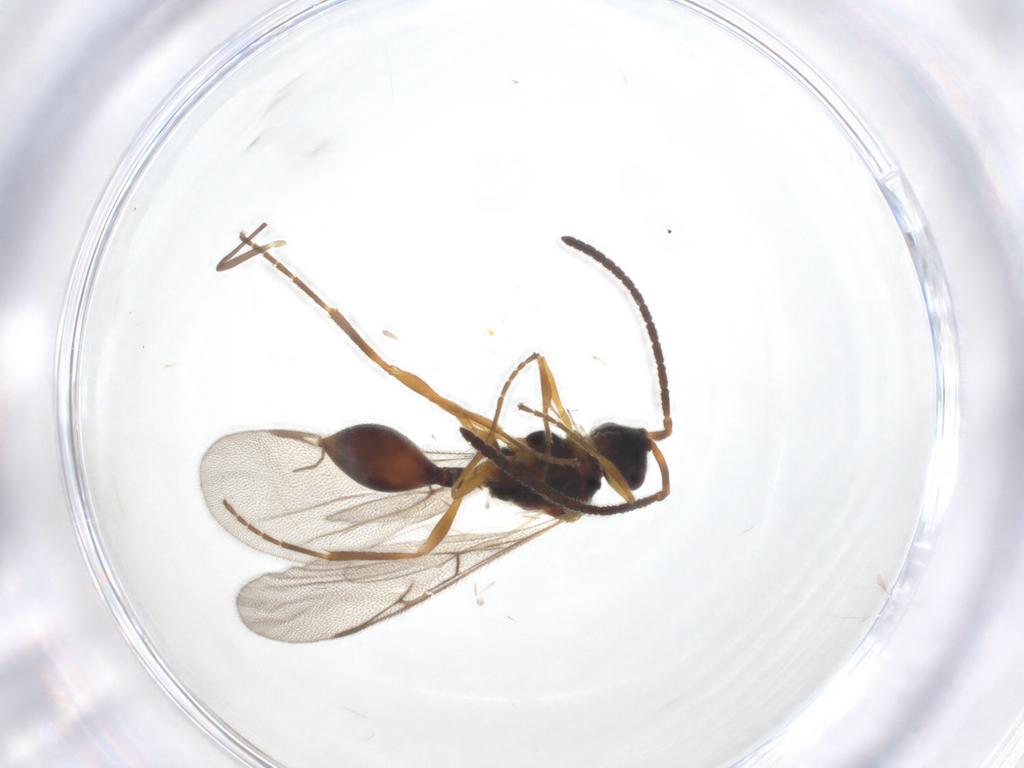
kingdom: Animalia
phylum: Arthropoda
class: Insecta
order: Hymenoptera
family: Diapriidae
